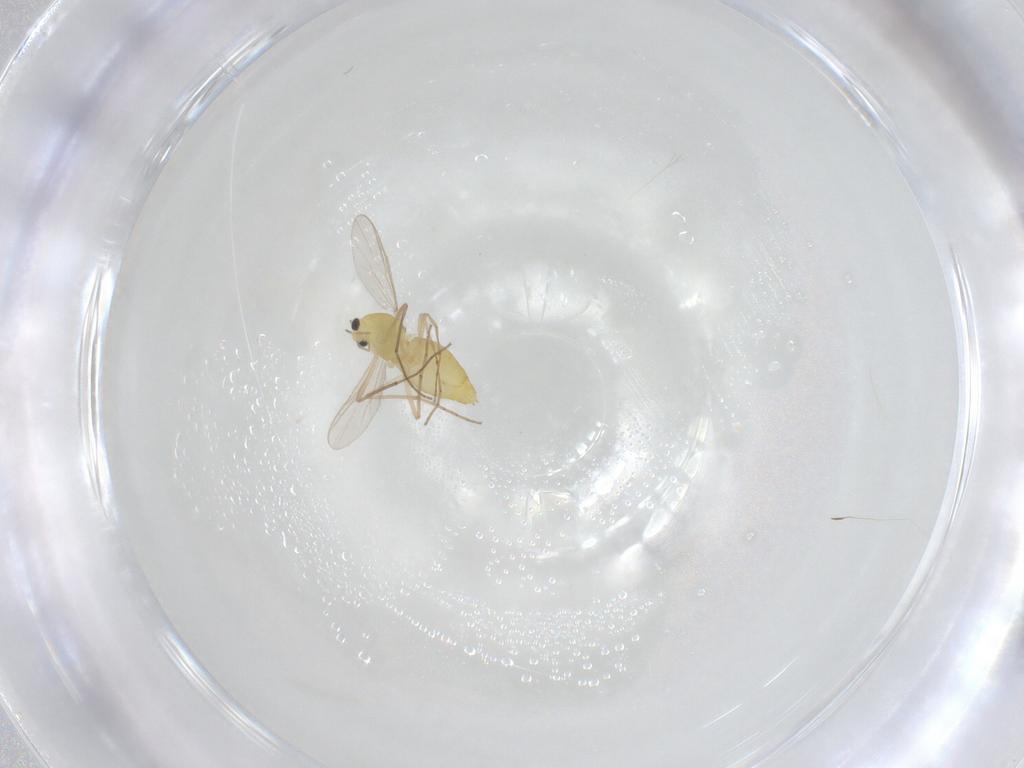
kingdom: Animalia
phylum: Arthropoda
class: Insecta
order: Diptera
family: Chironomidae
